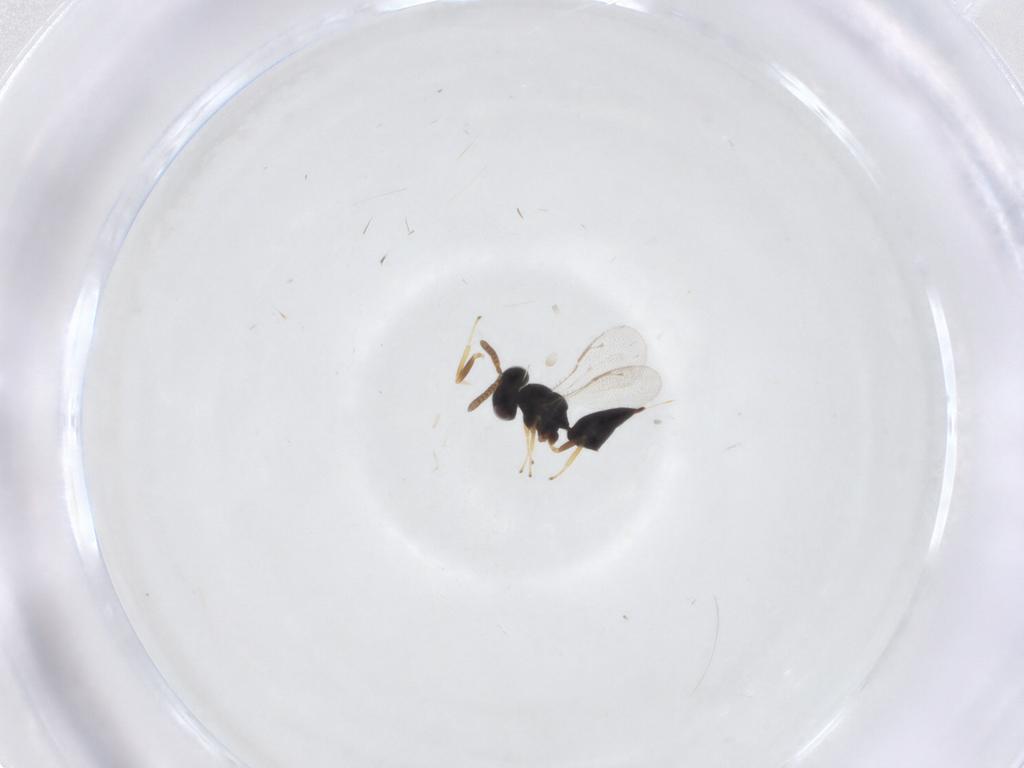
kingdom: Animalia
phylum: Arthropoda
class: Insecta
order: Hymenoptera
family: Pteromalidae
